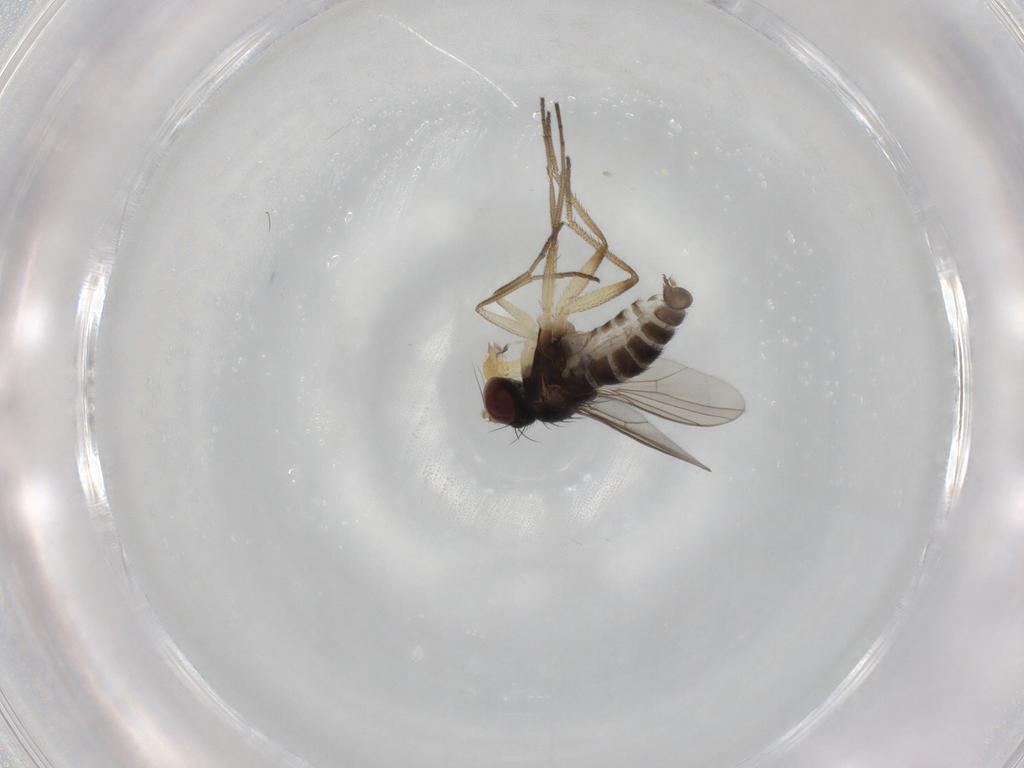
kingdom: Animalia
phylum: Arthropoda
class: Insecta
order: Diptera
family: Dolichopodidae
